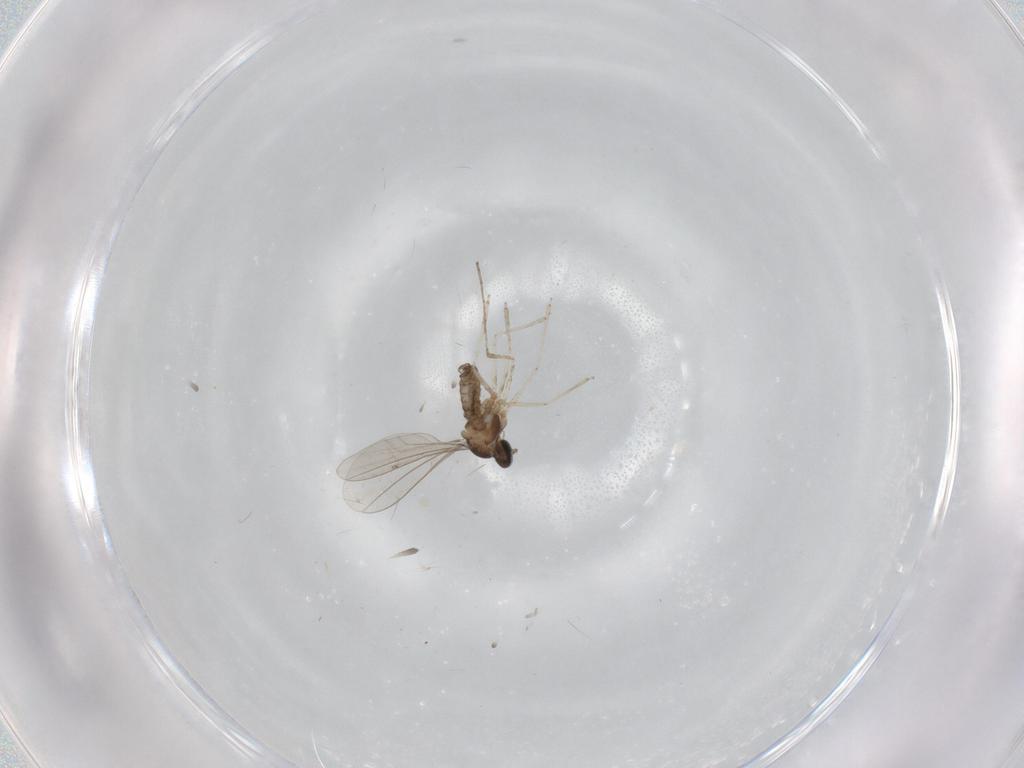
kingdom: Animalia
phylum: Arthropoda
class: Insecta
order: Diptera
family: Cecidomyiidae
